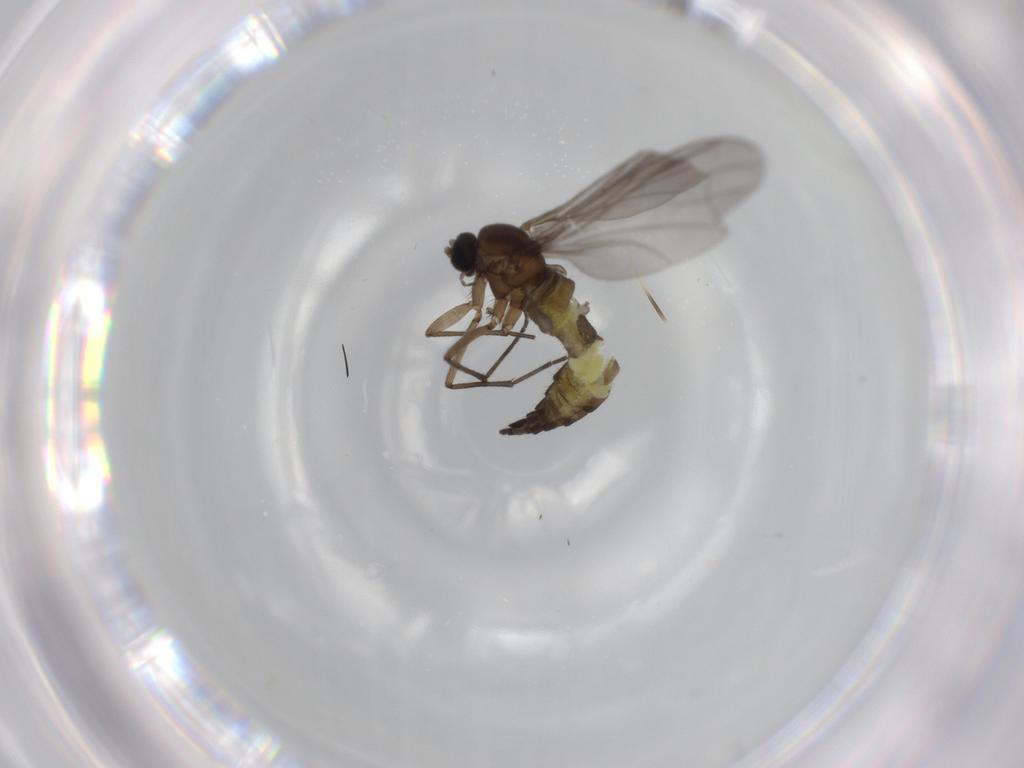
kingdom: Animalia
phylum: Arthropoda
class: Insecta
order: Diptera
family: Sciaridae
